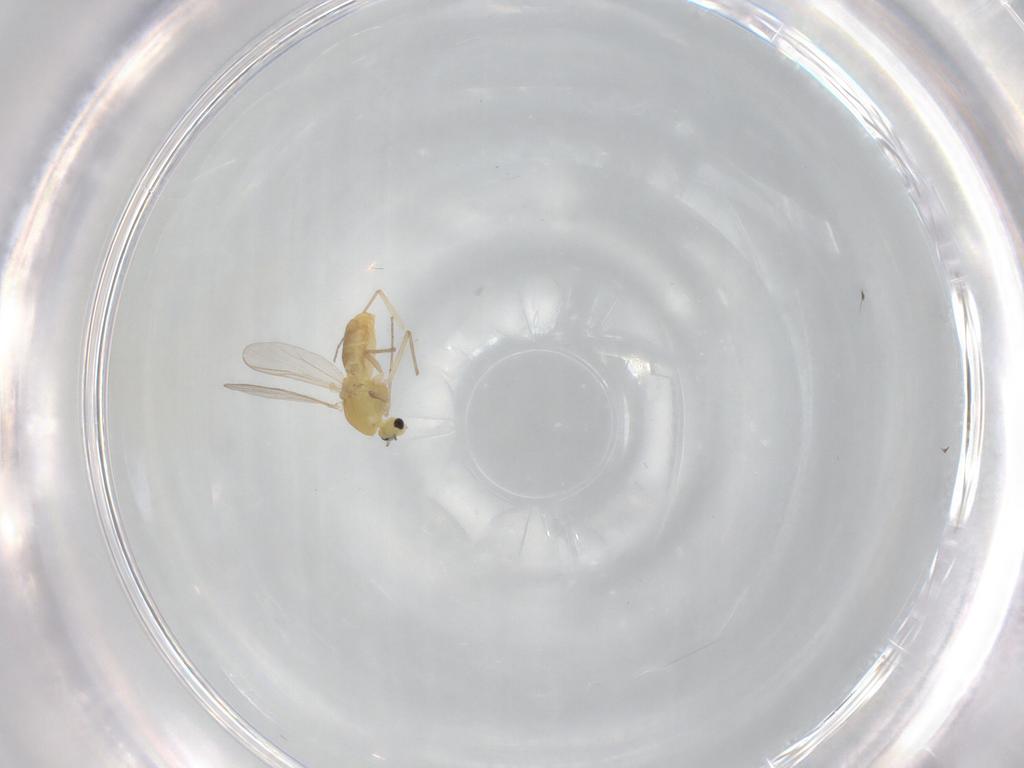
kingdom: Animalia
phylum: Arthropoda
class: Insecta
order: Diptera
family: Chironomidae
